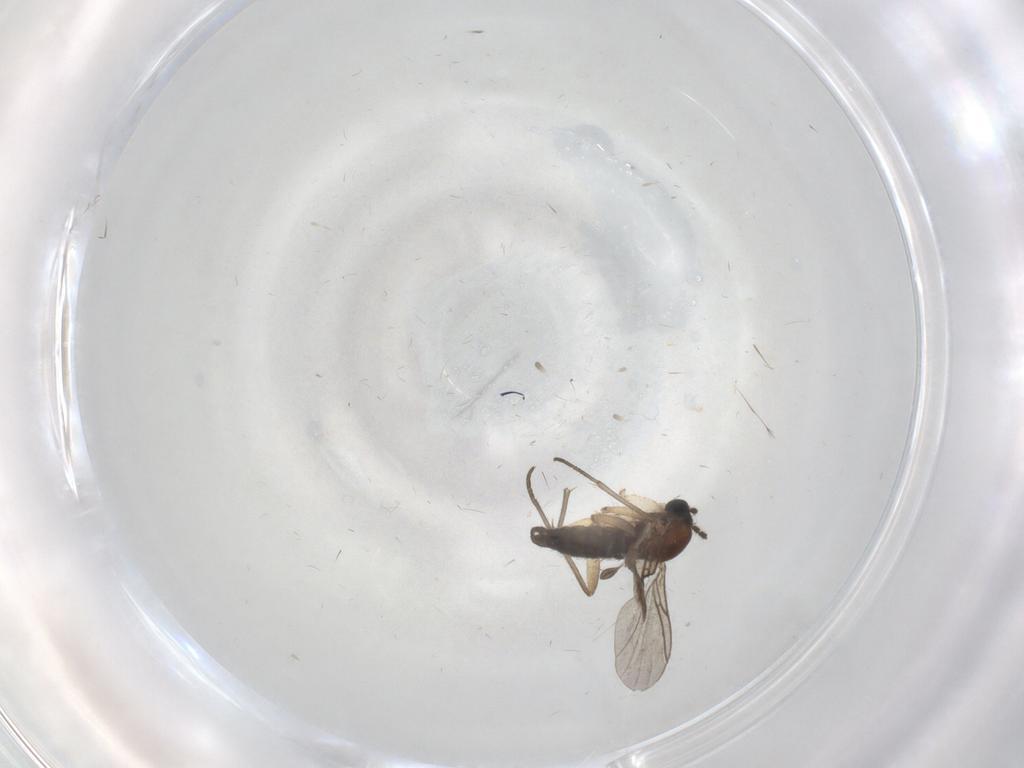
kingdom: Animalia
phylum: Arthropoda
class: Insecta
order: Diptera
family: Sciaridae
